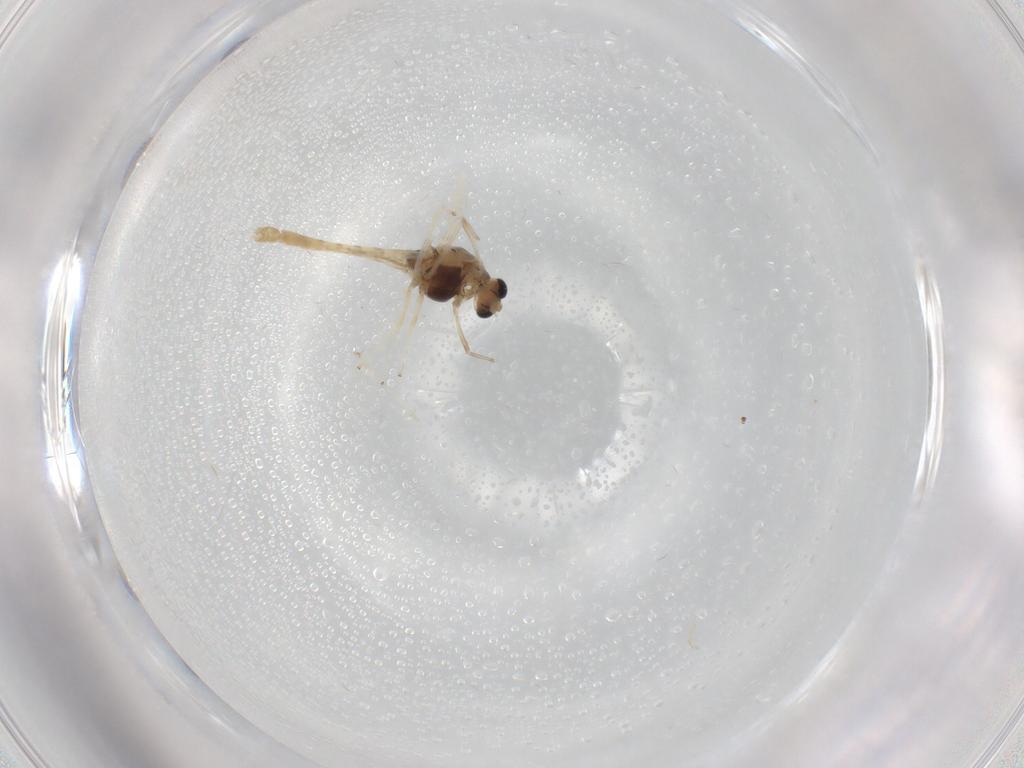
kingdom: Animalia
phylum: Arthropoda
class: Insecta
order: Diptera
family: Chironomidae
